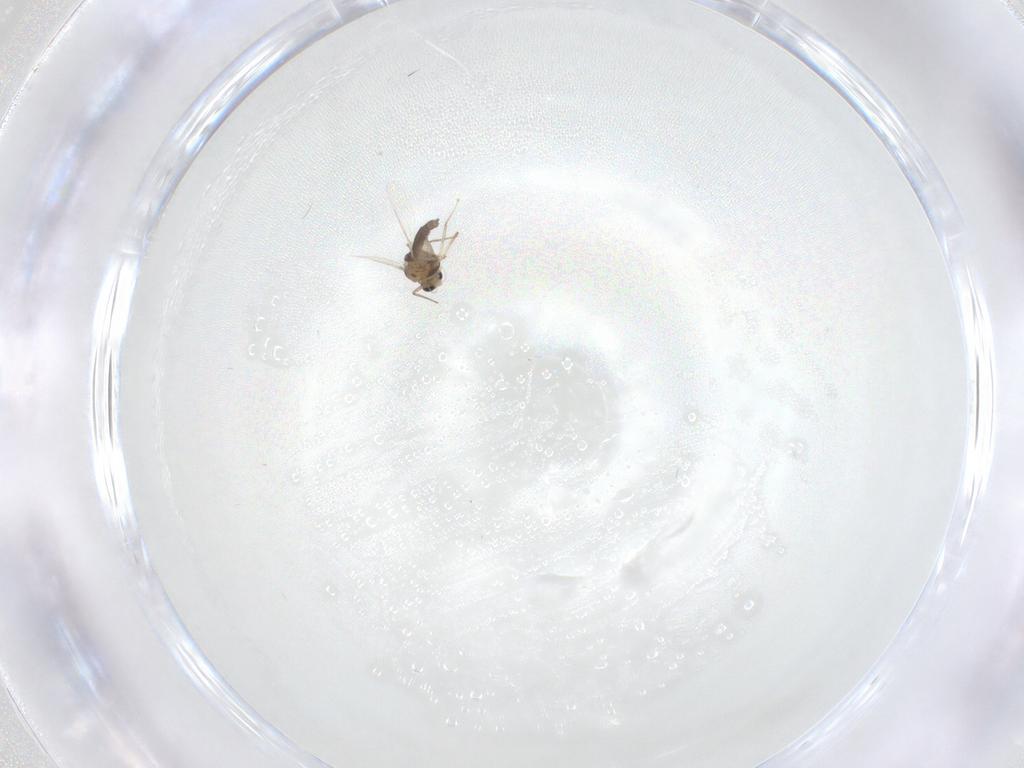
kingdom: Animalia
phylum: Arthropoda
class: Insecta
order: Diptera
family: Chironomidae
